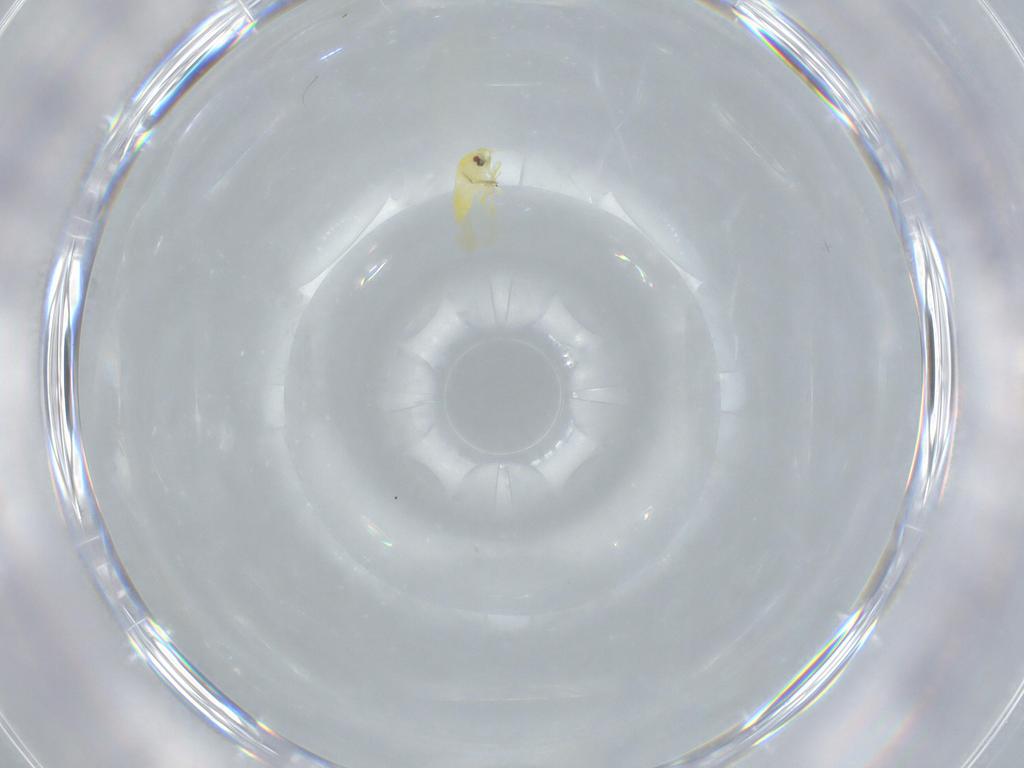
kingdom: Animalia
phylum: Arthropoda
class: Insecta
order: Hemiptera
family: Aleyrodidae
